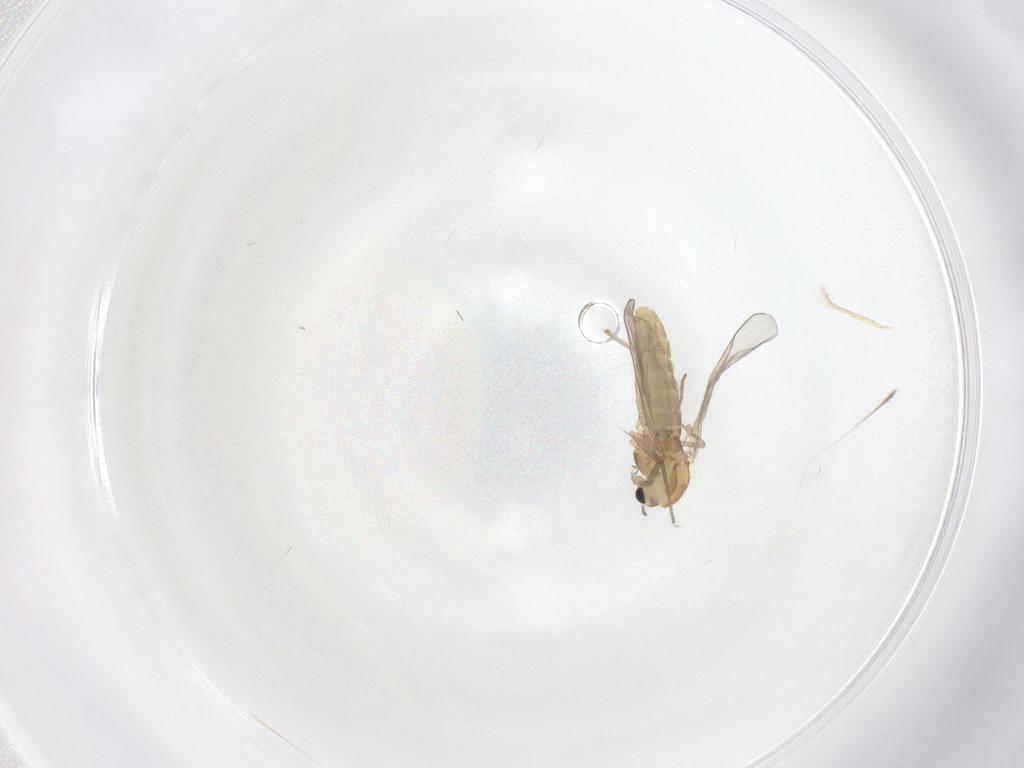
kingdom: Animalia
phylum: Arthropoda
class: Insecta
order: Diptera
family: Chironomidae
